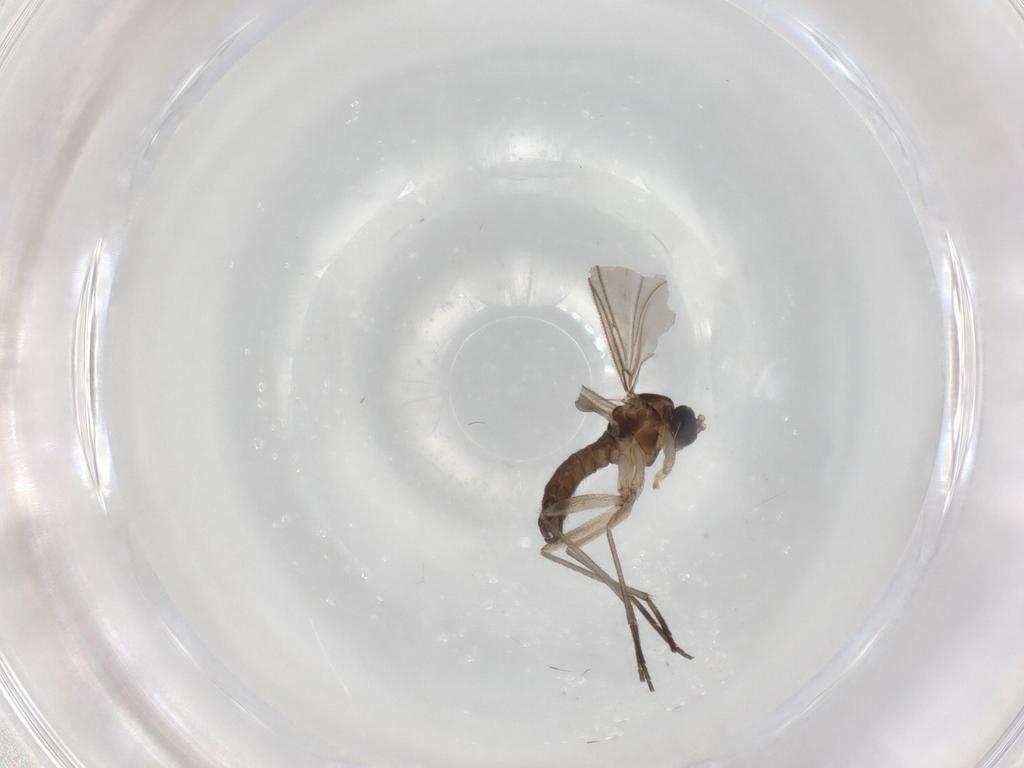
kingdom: Animalia
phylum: Arthropoda
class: Insecta
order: Diptera
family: Sciaridae
